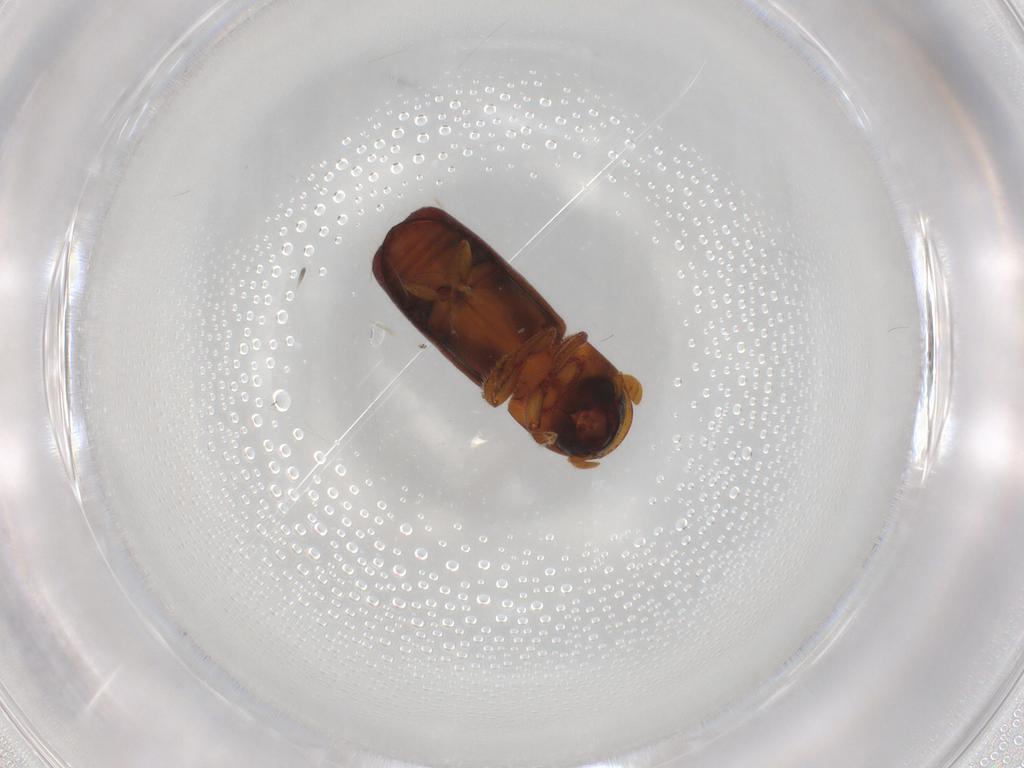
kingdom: Animalia
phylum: Arthropoda
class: Insecta
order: Coleoptera
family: Curculionidae
